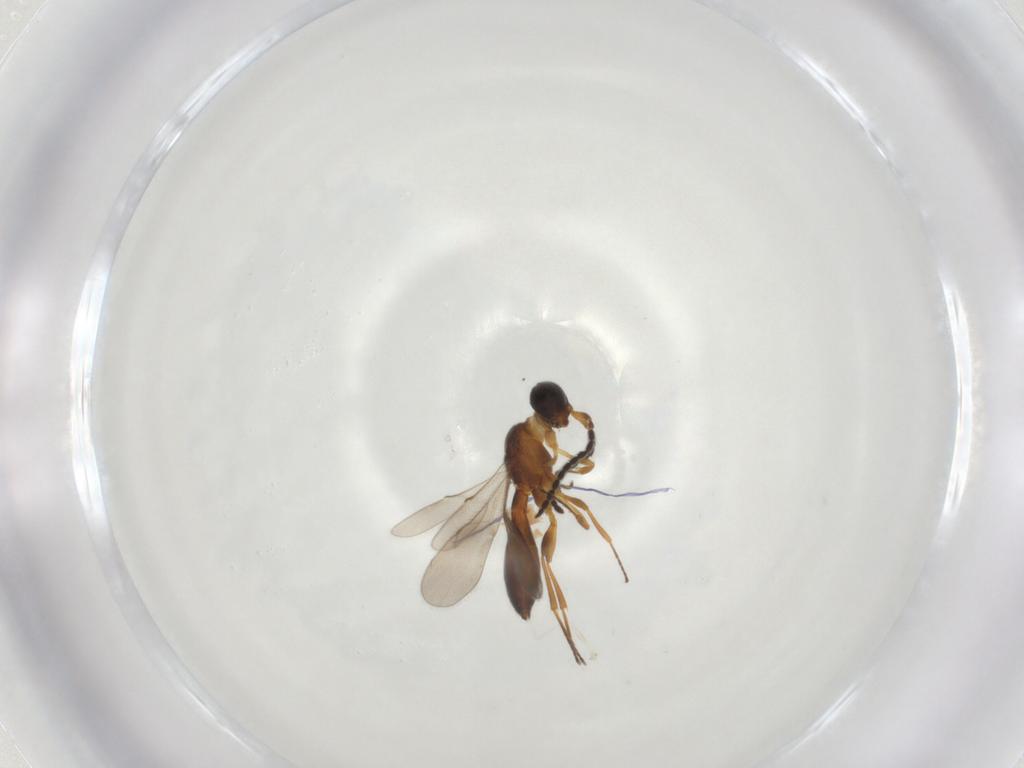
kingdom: Animalia
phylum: Arthropoda
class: Insecta
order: Hymenoptera
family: Scelionidae
